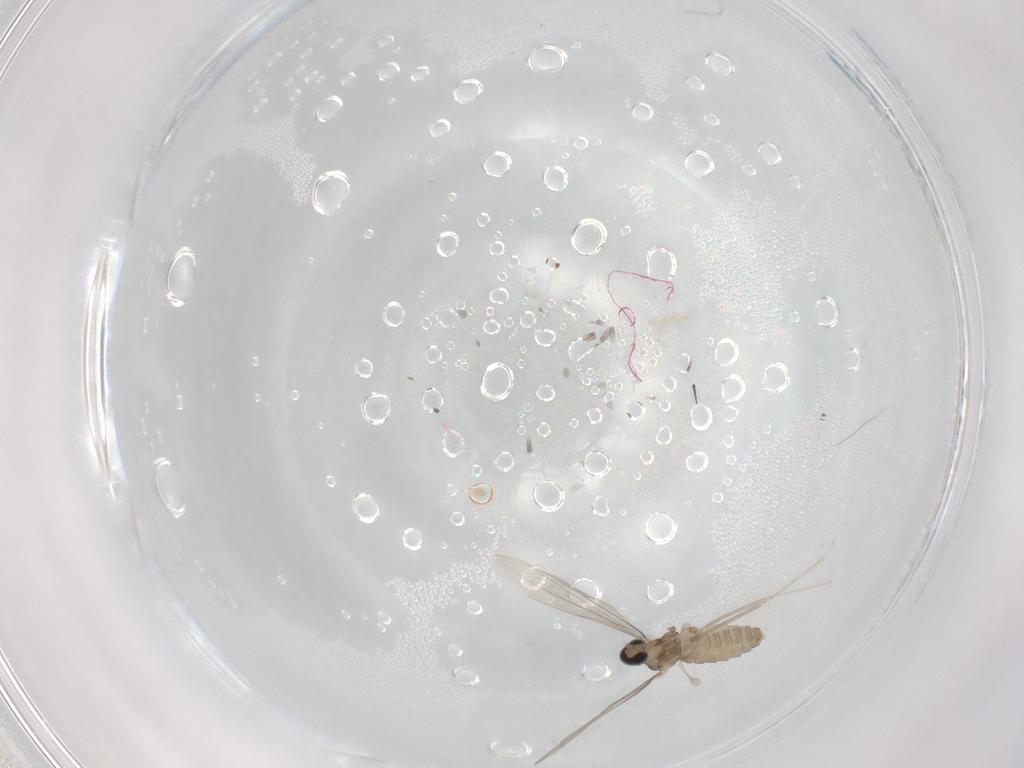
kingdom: Animalia
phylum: Arthropoda
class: Insecta
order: Diptera
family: Cecidomyiidae
